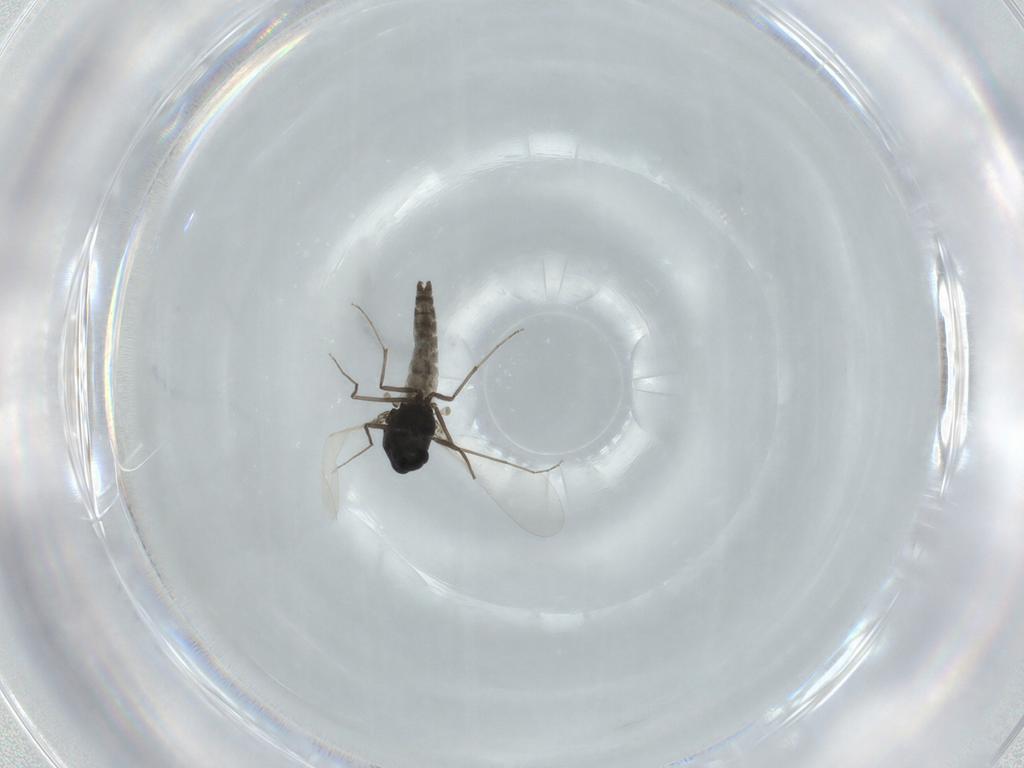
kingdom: Animalia
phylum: Arthropoda
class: Insecta
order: Diptera
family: Chironomidae
